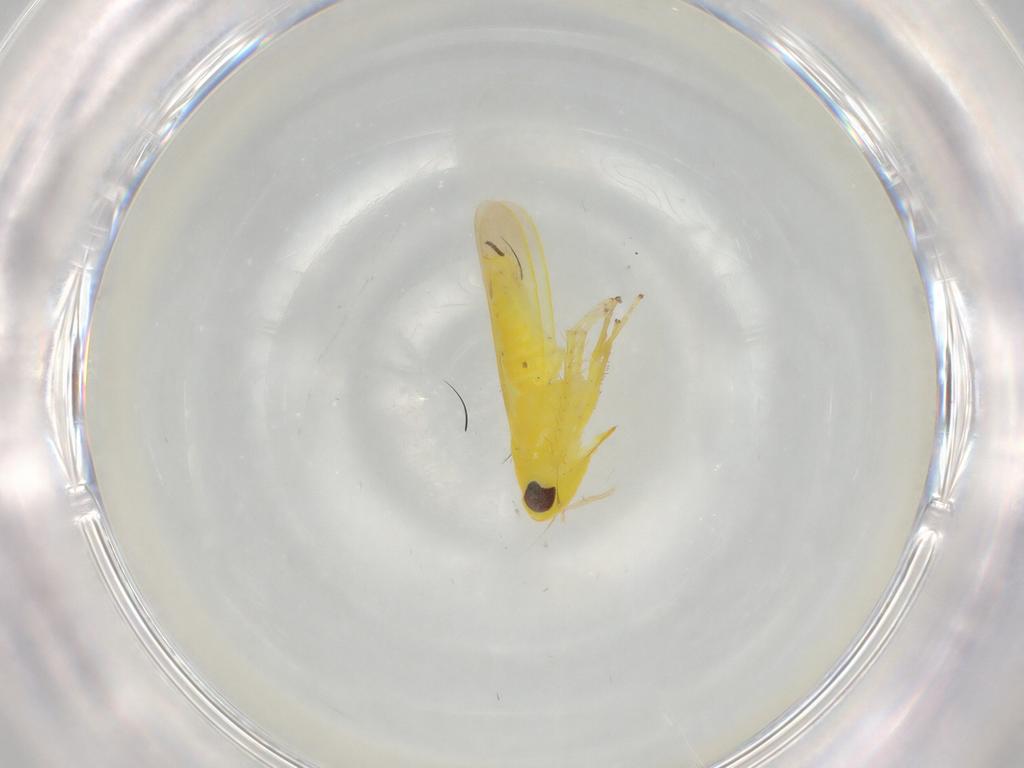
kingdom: Animalia
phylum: Arthropoda
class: Insecta
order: Hemiptera
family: Cicadellidae
